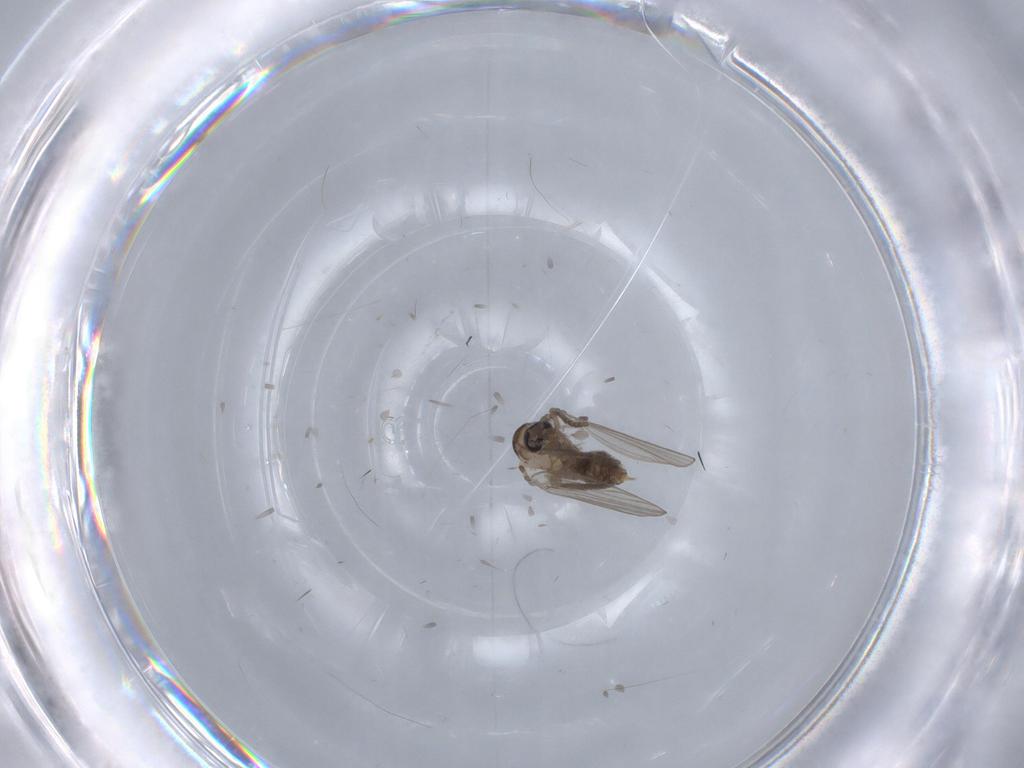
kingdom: Animalia
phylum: Arthropoda
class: Insecta
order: Diptera
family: Psychodidae
